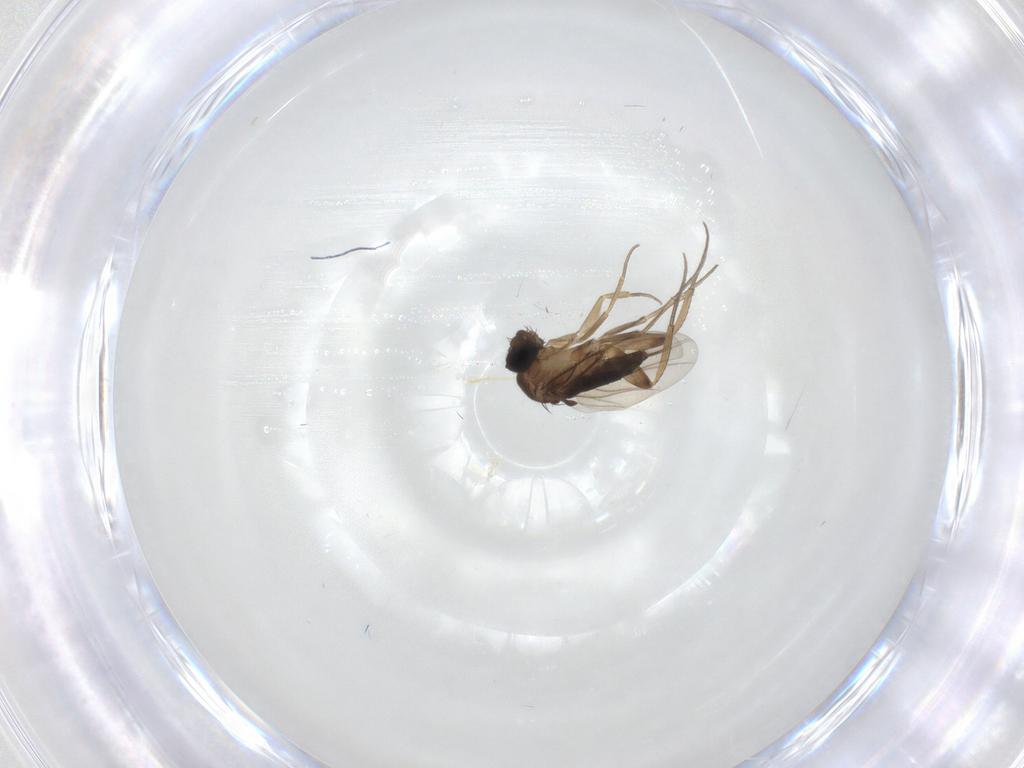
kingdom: Animalia
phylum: Arthropoda
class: Insecta
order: Diptera
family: Phoridae
